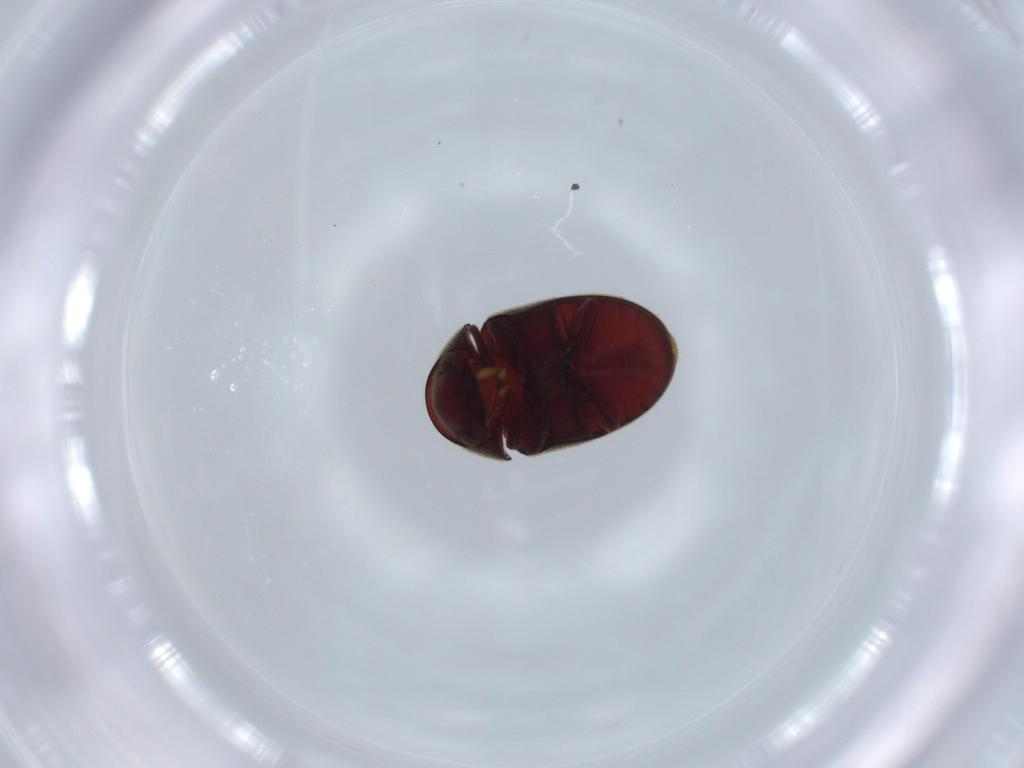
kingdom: Animalia
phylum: Arthropoda
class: Insecta
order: Coleoptera
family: Ptinidae
